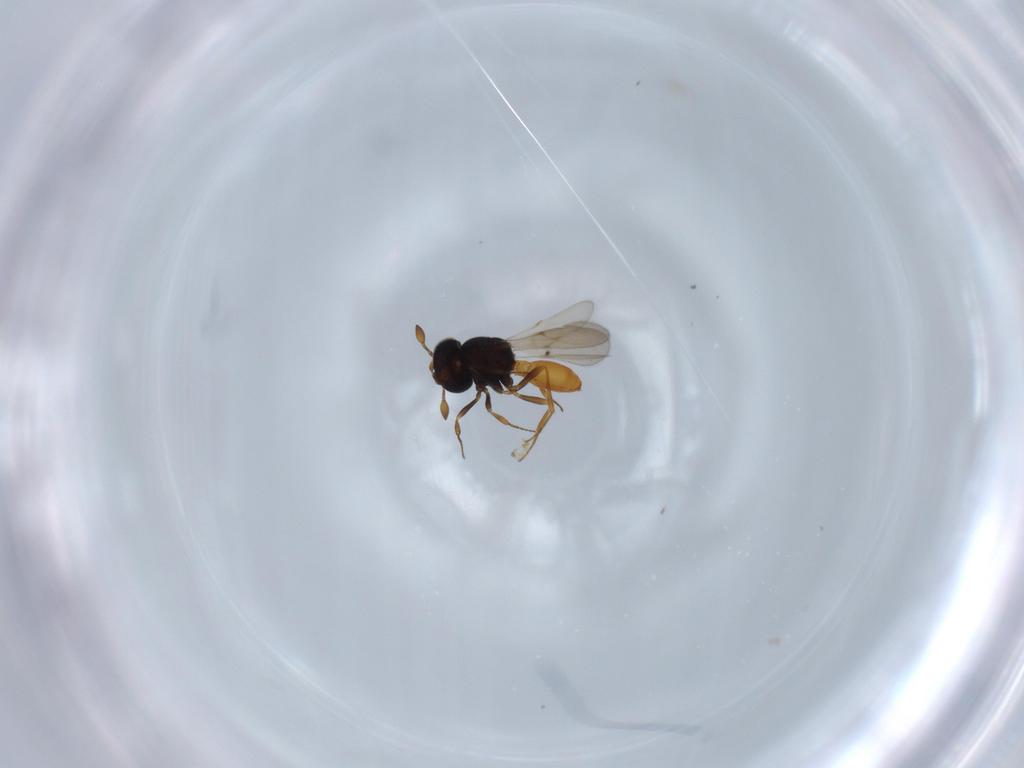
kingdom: Animalia
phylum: Arthropoda
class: Insecta
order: Hymenoptera
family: Scelionidae
